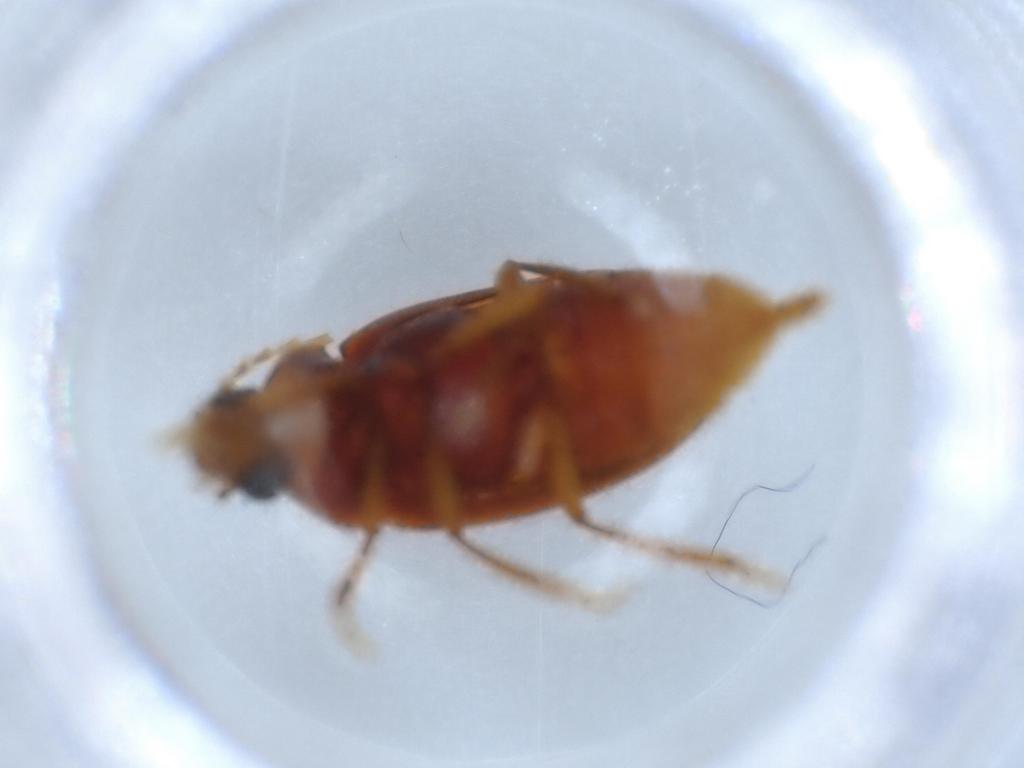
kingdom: Animalia
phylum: Arthropoda
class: Insecta
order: Coleoptera
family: Ptilodactylidae
